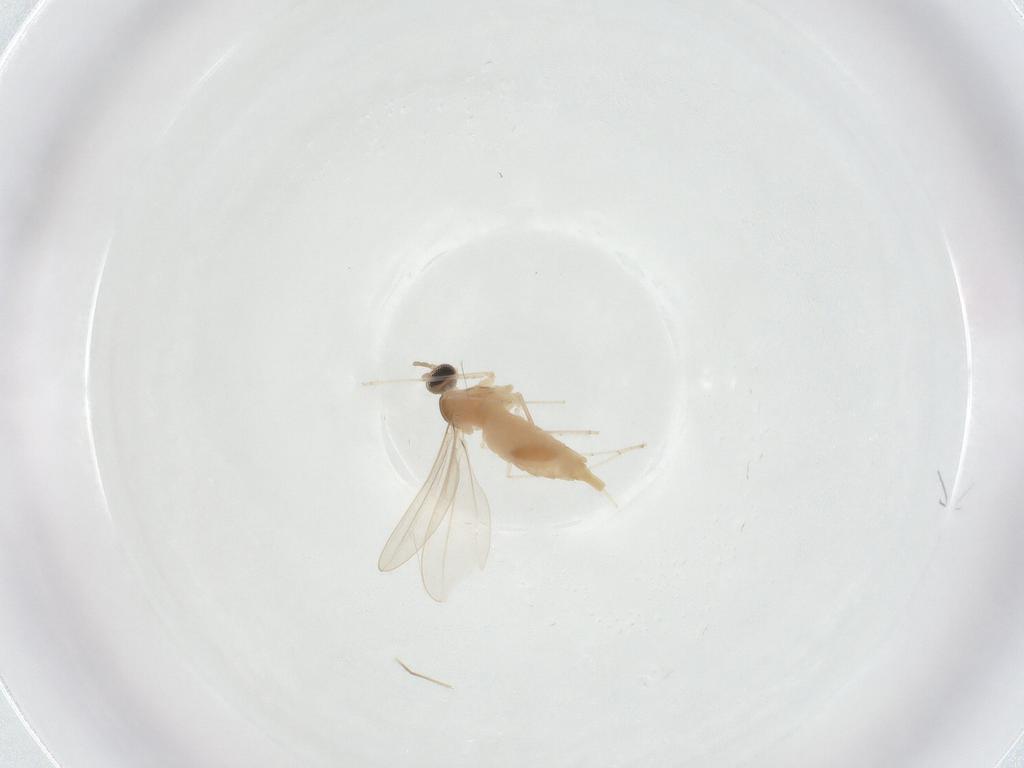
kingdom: Animalia
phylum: Arthropoda
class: Insecta
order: Diptera
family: Cecidomyiidae
